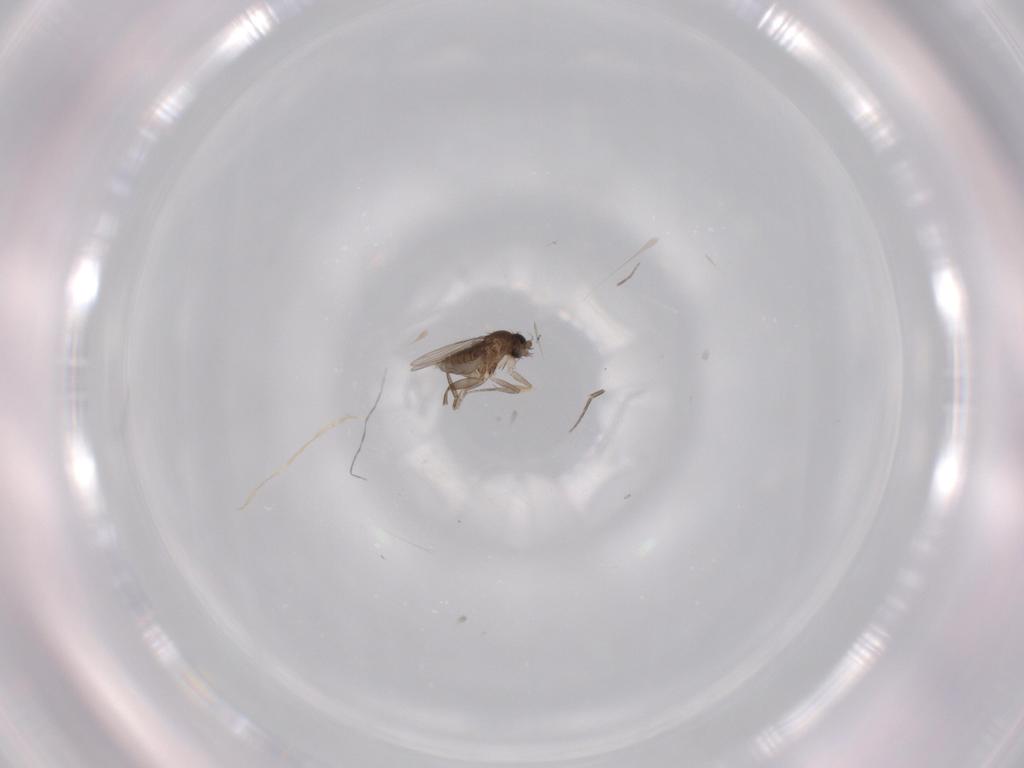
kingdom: Animalia
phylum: Arthropoda
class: Insecta
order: Diptera
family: Phoridae
